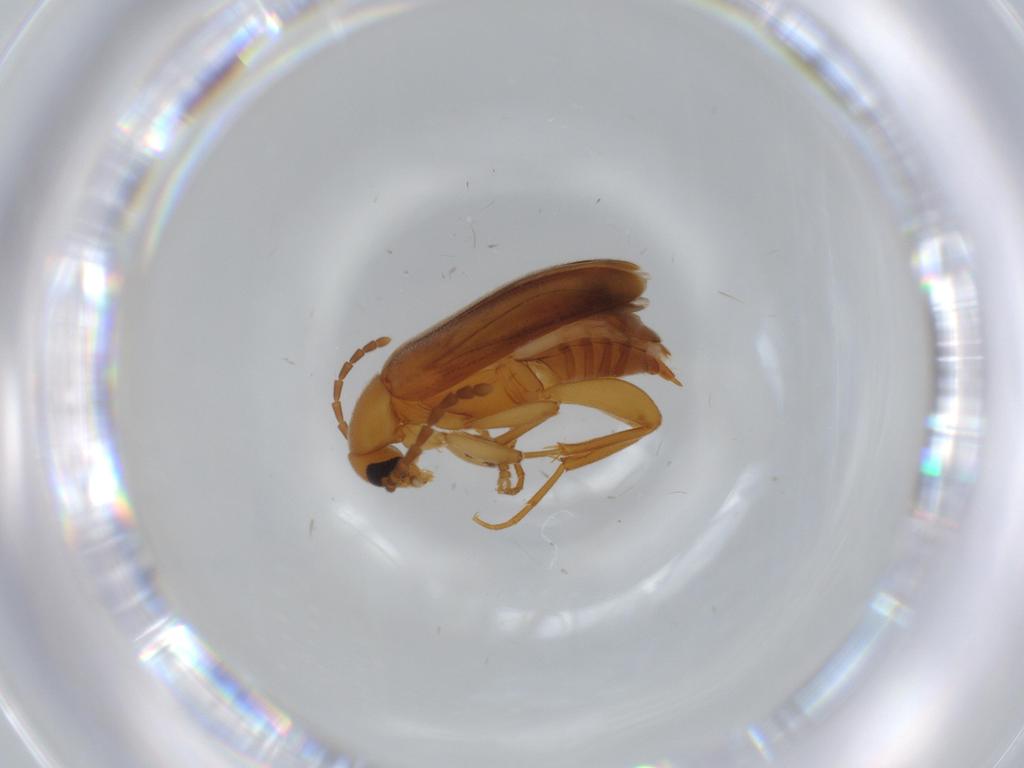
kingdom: Animalia
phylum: Arthropoda
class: Insecta
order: Coleoptera
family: Scraptiidae
